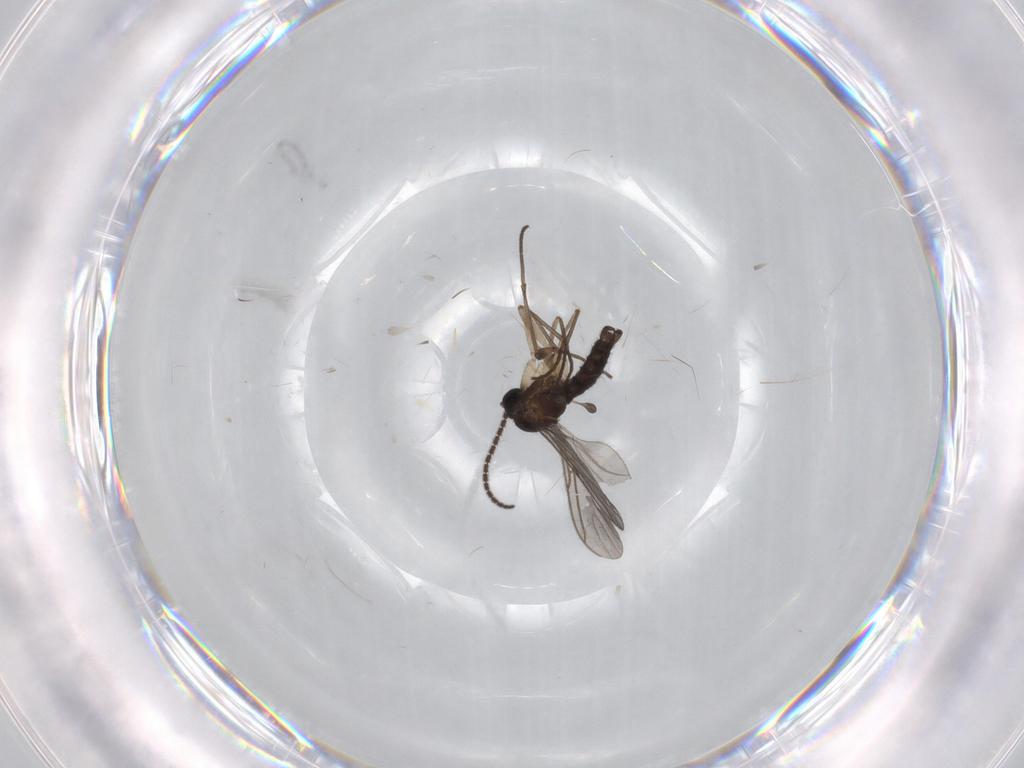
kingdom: Animalia
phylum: Arthropoda
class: Insecta
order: Diptera
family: Sciaridae
